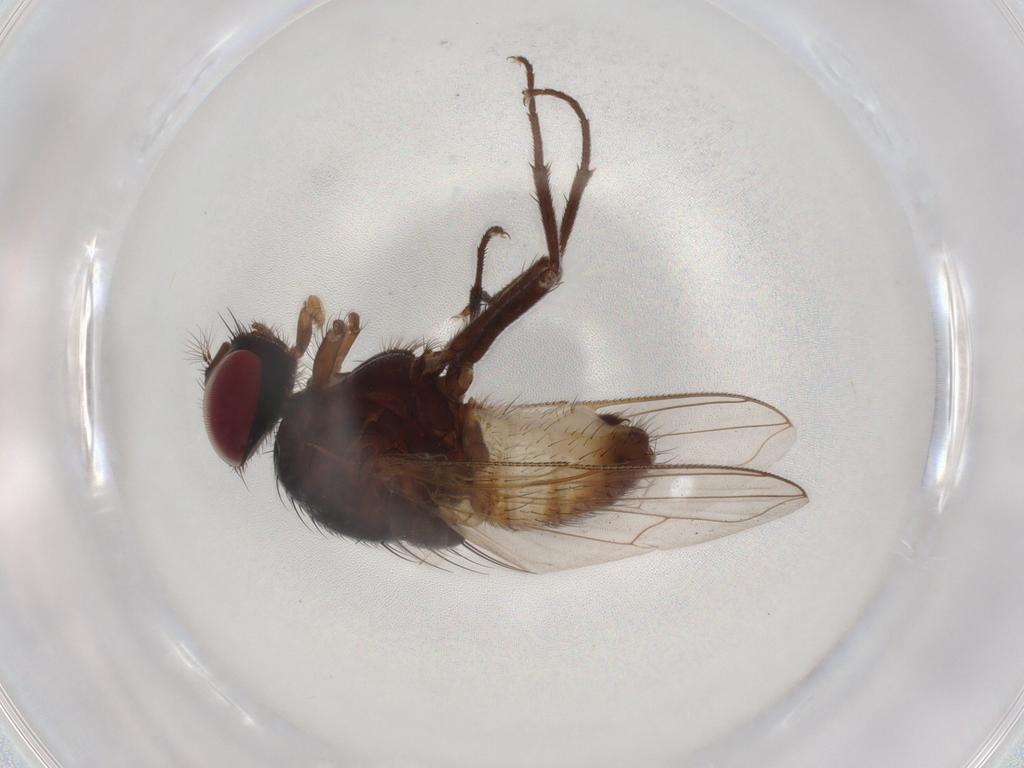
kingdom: Animalia
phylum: Arthropoda
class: Insecta
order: Diptera
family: Muscidae
